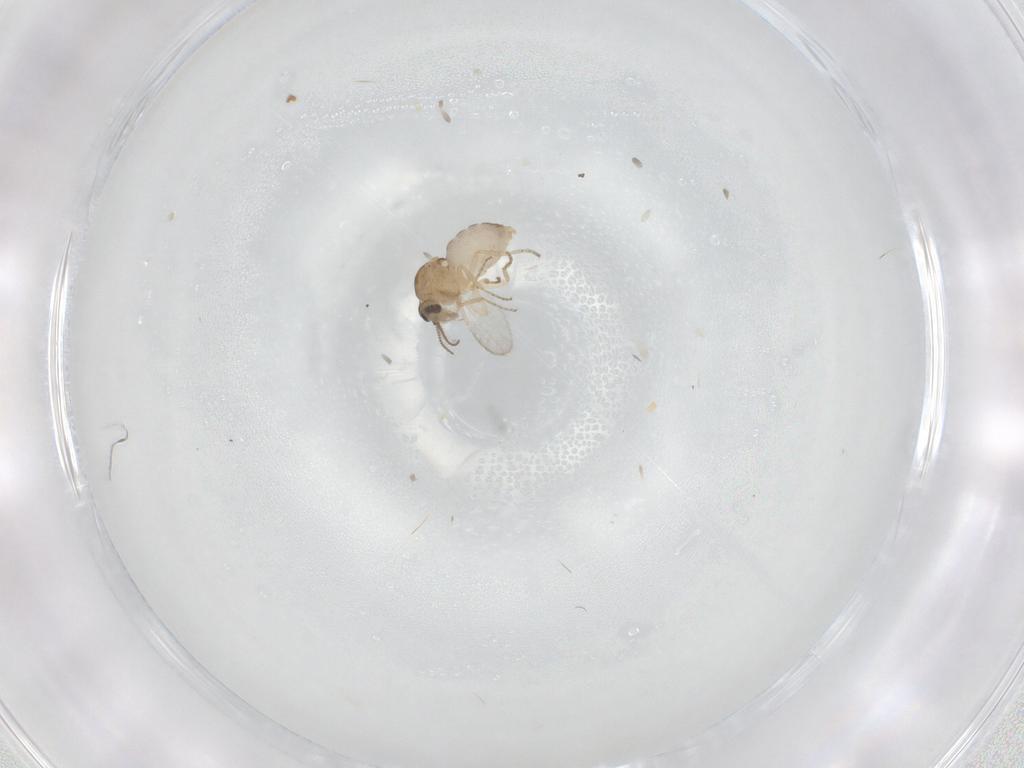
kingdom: Animalia
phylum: Arthropoda
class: Insecta
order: Diptera
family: Ceratopogonidae
